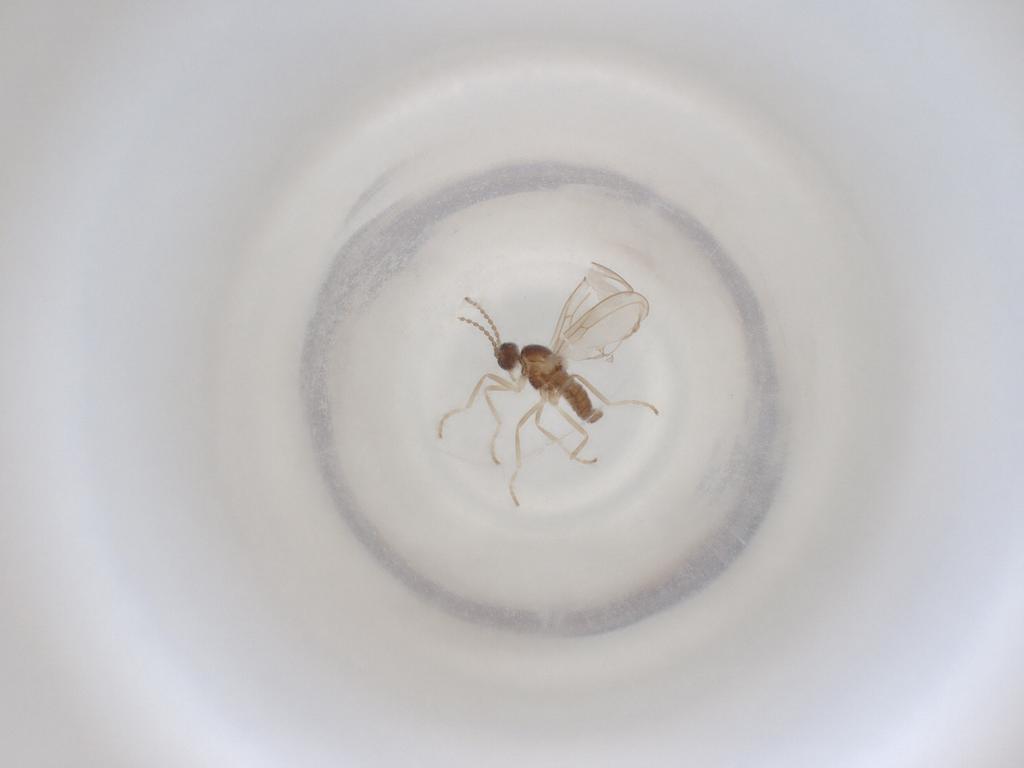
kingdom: Animalia
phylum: Arthropoda
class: Insecta
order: Diptera
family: Cecidomyiidae
